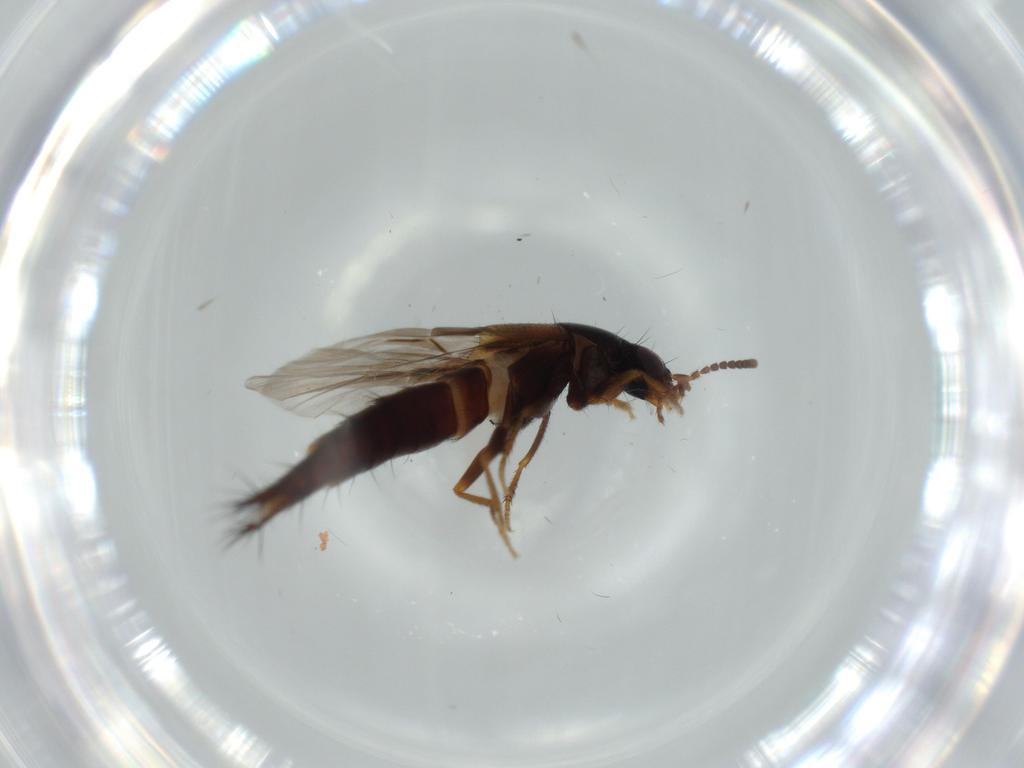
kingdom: Animalia
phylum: Arthropoda
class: Insecta
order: Coleoptera
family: Staphylinidae
